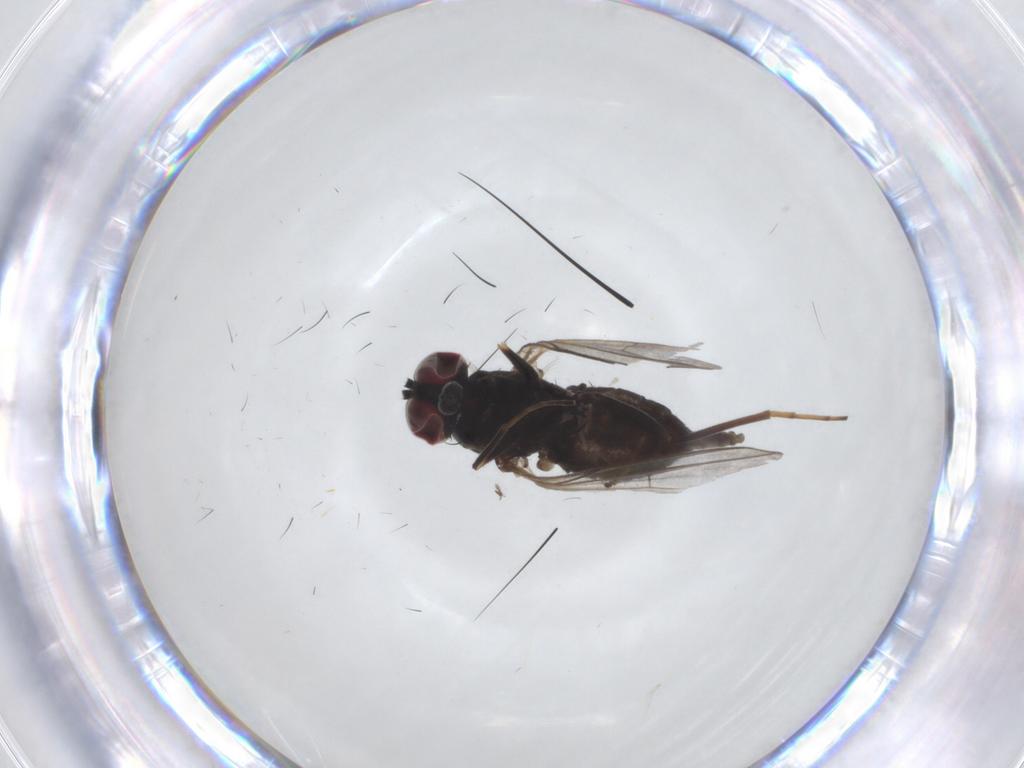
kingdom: Animalia
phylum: Arthropoda
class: Insecta
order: Diptera
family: Dolichopodidae
